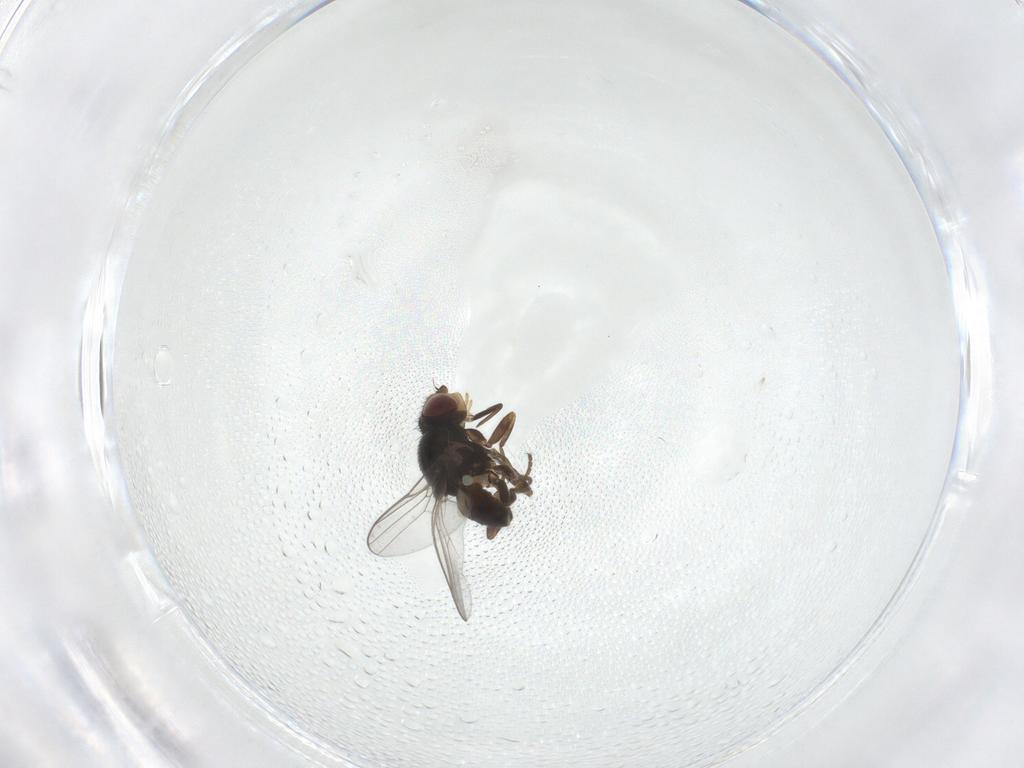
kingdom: Animalia
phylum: Arthropoda
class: Insecta
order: Diptera
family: Chloropidae
